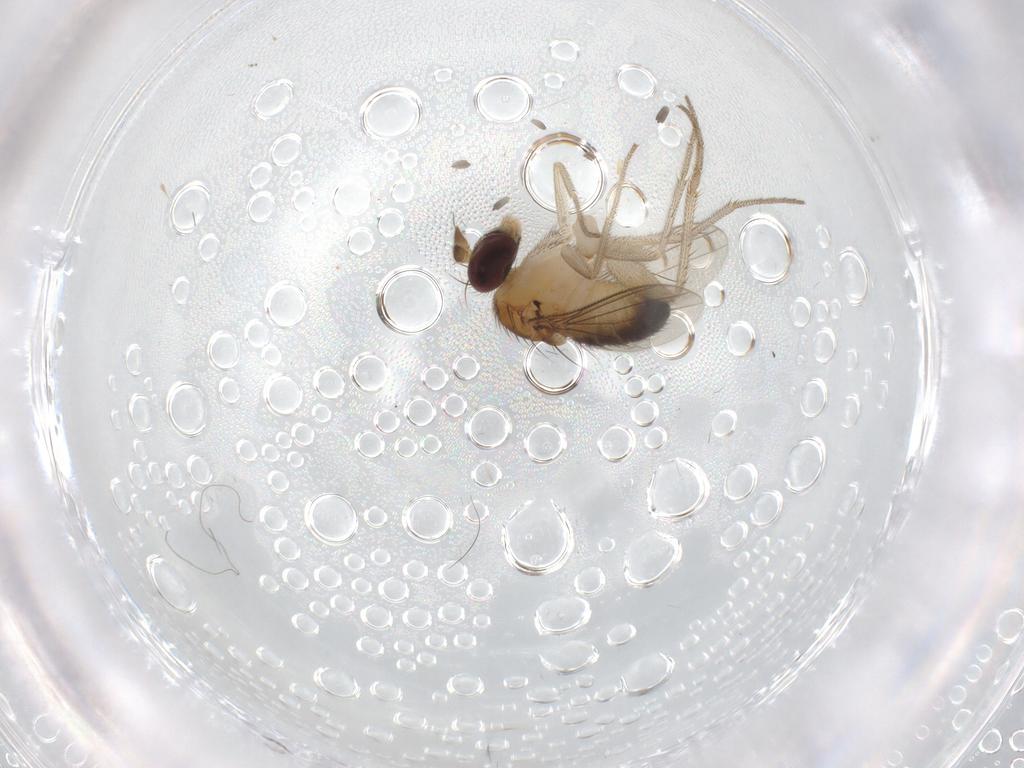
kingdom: Animalia
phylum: Arthropoda
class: Insecta
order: Diptera
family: Dolichopodidae
